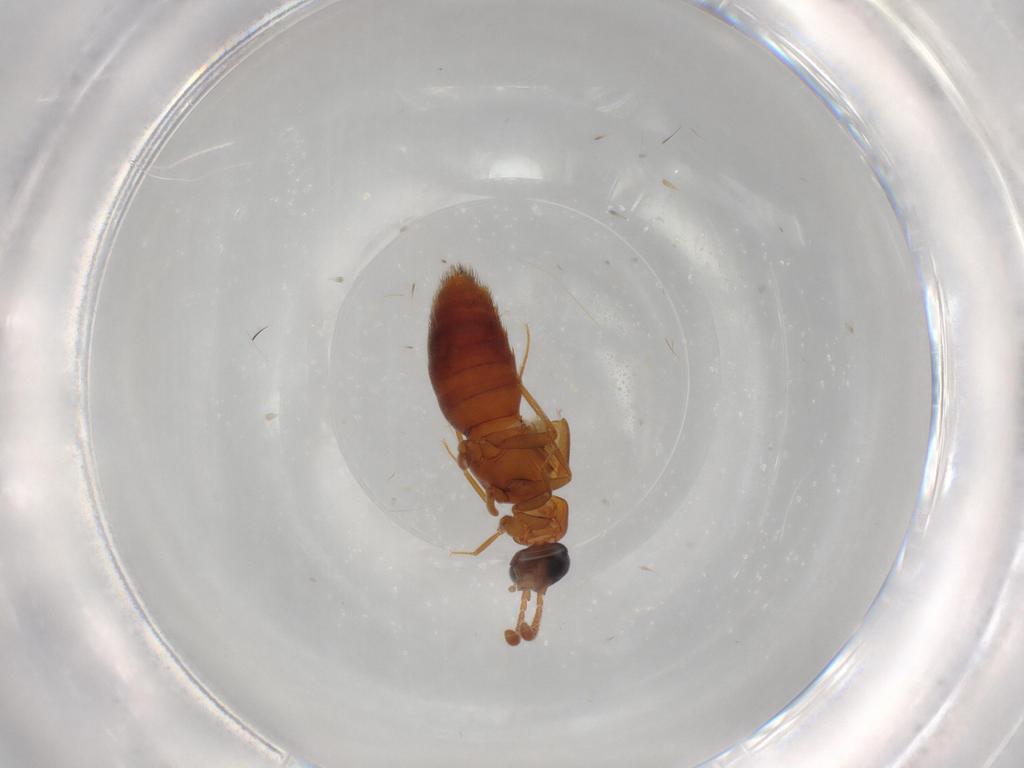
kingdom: Animalia
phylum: Arthropoda
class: Insecta
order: Coleoptera
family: Staphylinidae
